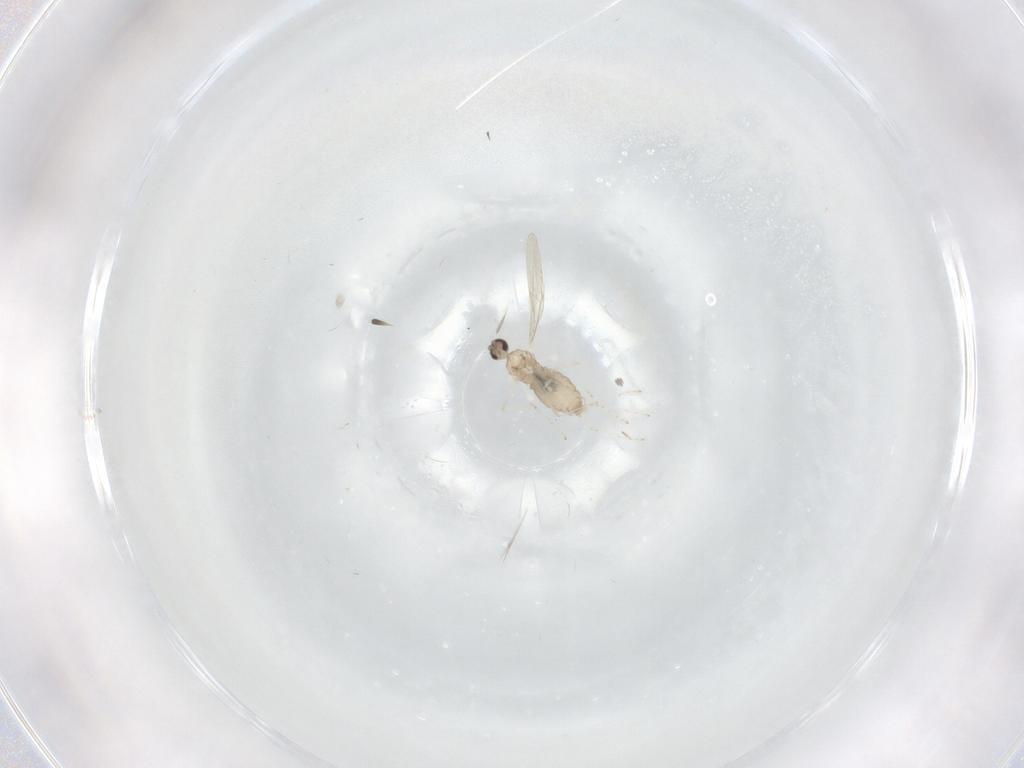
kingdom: Animalia
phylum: Arthropoda
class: Insecta
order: Diptera
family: Cecidomyiidae
